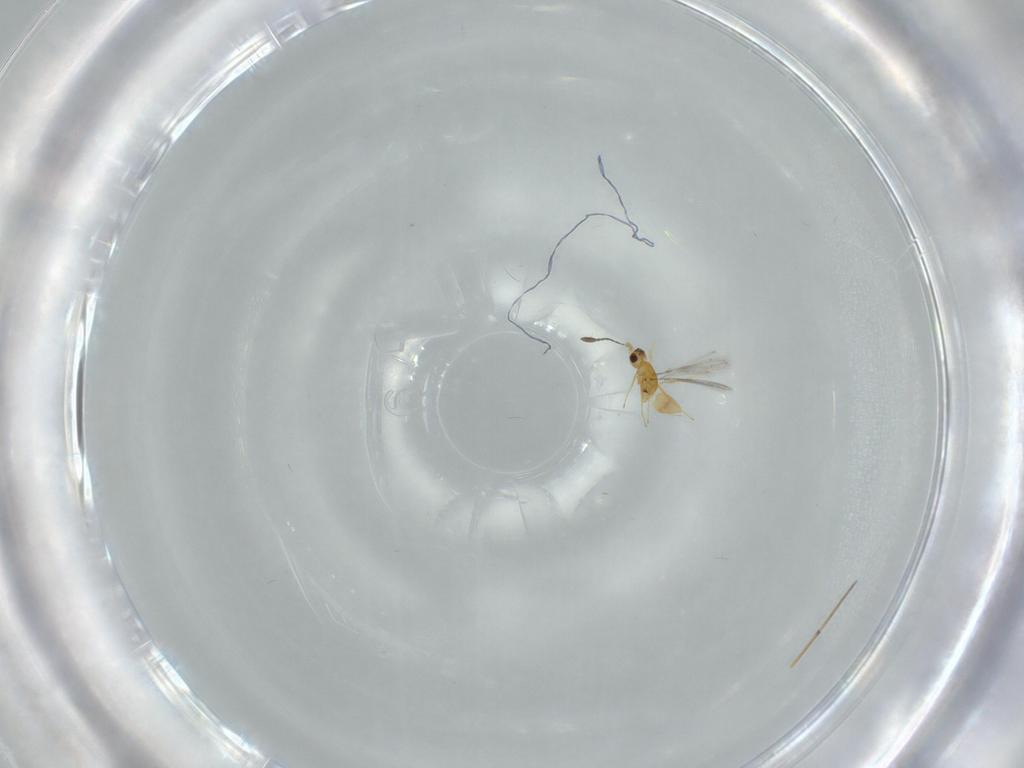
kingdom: Animalia
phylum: Arthropoda
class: Insecta
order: Hymenoptera
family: Mymaridae
